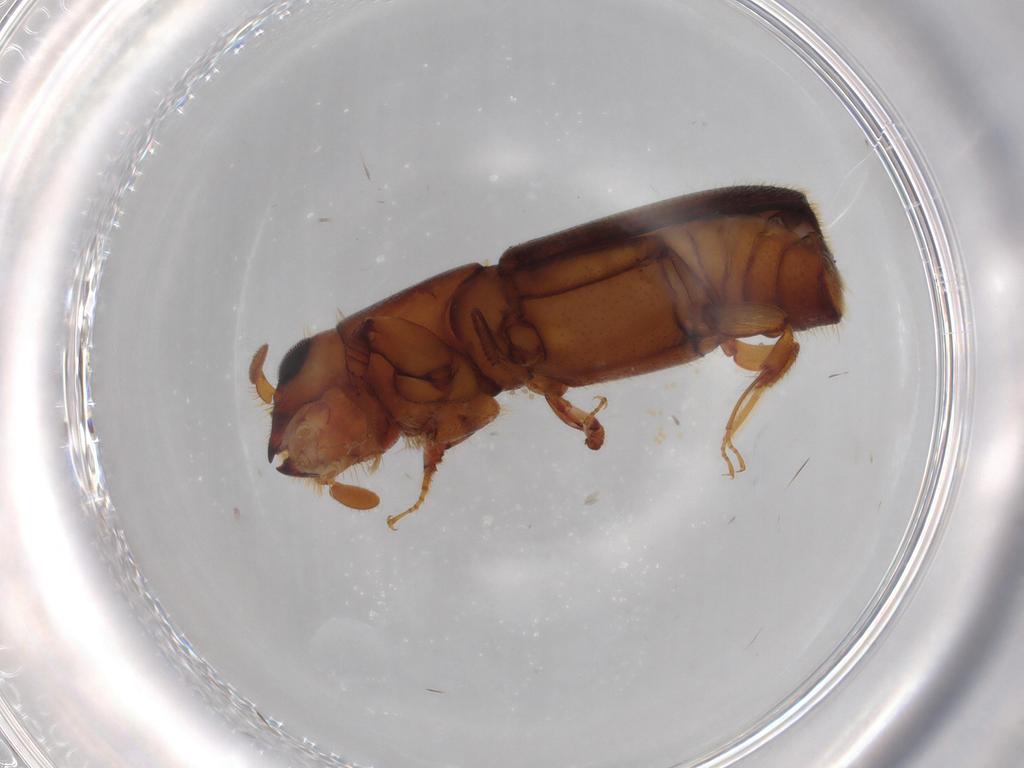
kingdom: Animalia
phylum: Arthropoda
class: Insecta
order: Coleoptera
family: Curculionidae
